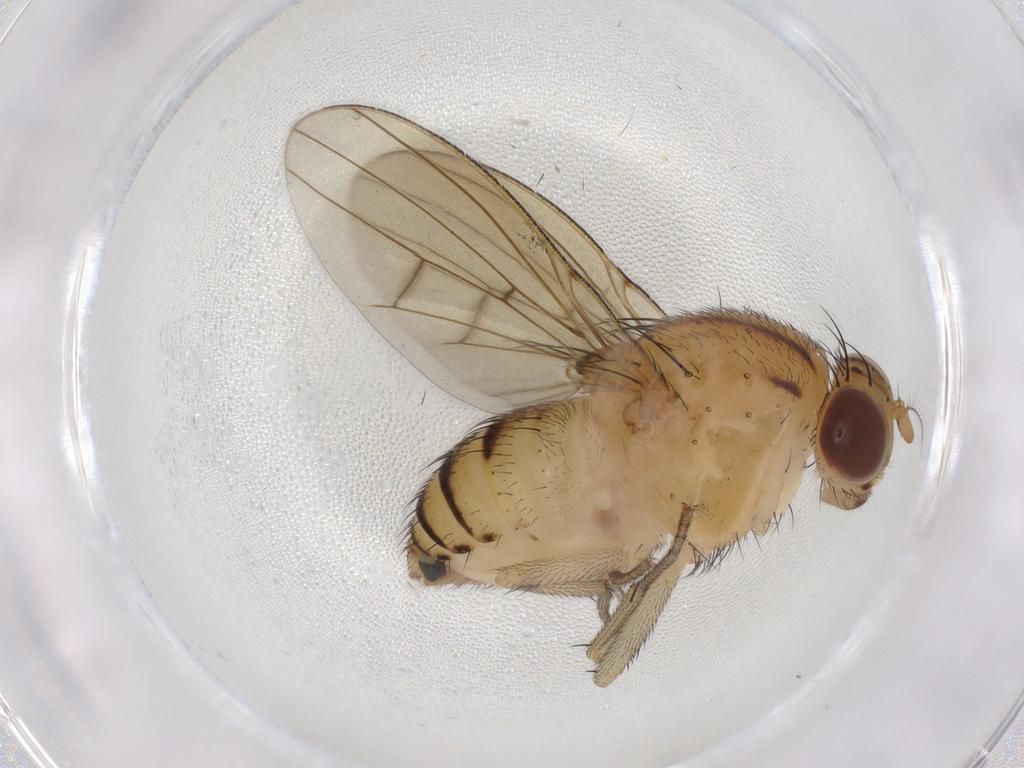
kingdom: Animalia
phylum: Arthropoda
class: Insecta
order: Diptera
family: Lauxaniidae
